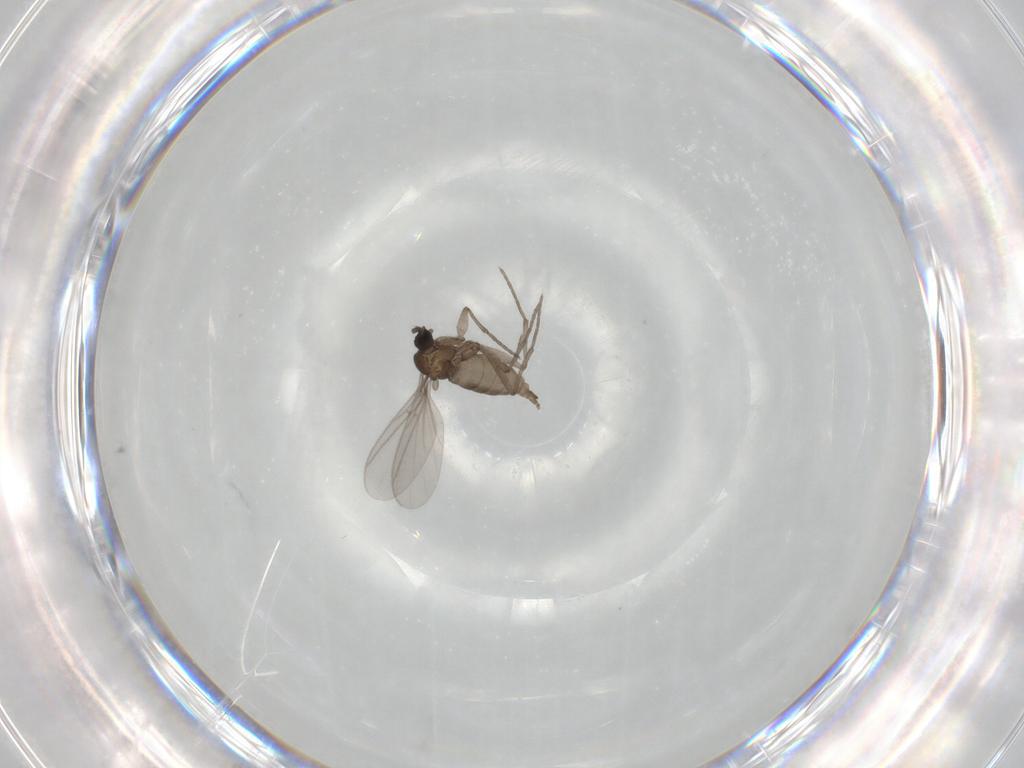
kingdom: Animalia
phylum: Arthropoda
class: Insecta
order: Diptera
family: Sciaridae
